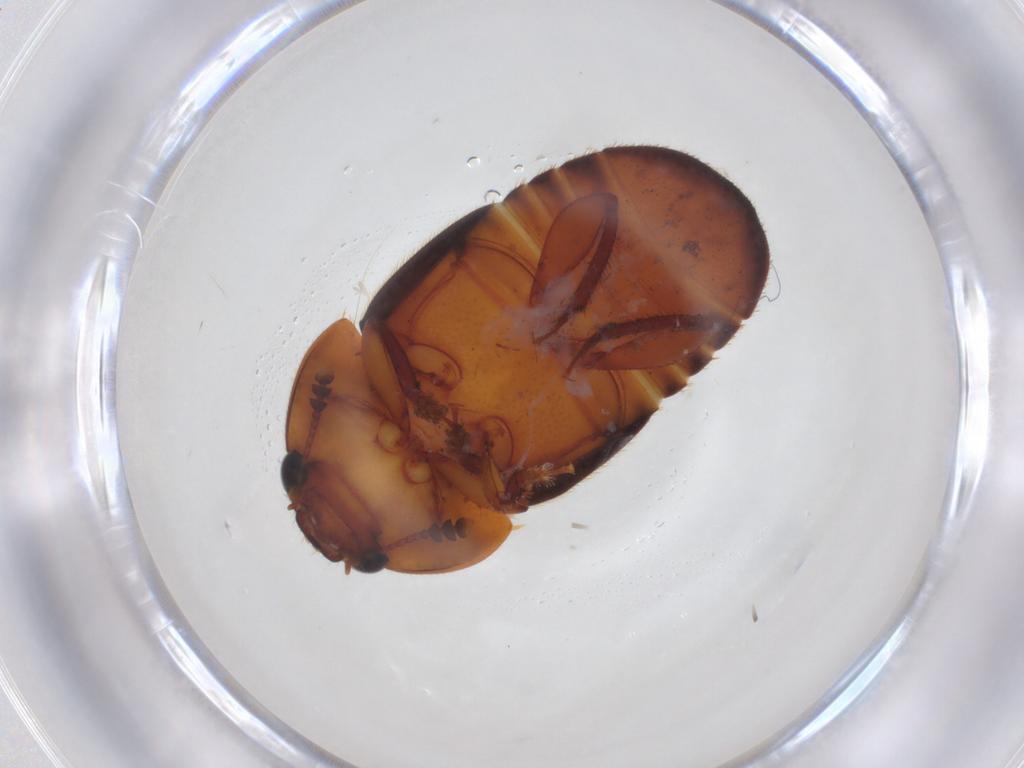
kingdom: Animalia
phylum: Arthropoda
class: Insecta
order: Coleoptera
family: Nitidulidae
